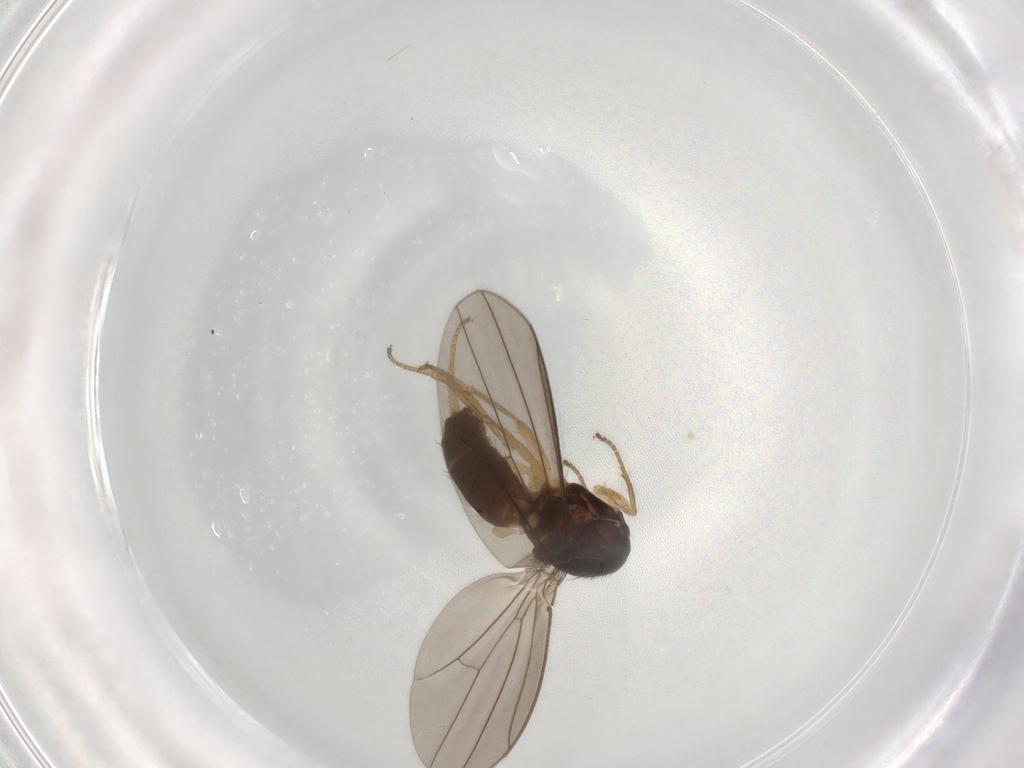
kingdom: Animalia
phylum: Arthropoda
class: Insecta
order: Diptera
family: Drosophilidae
